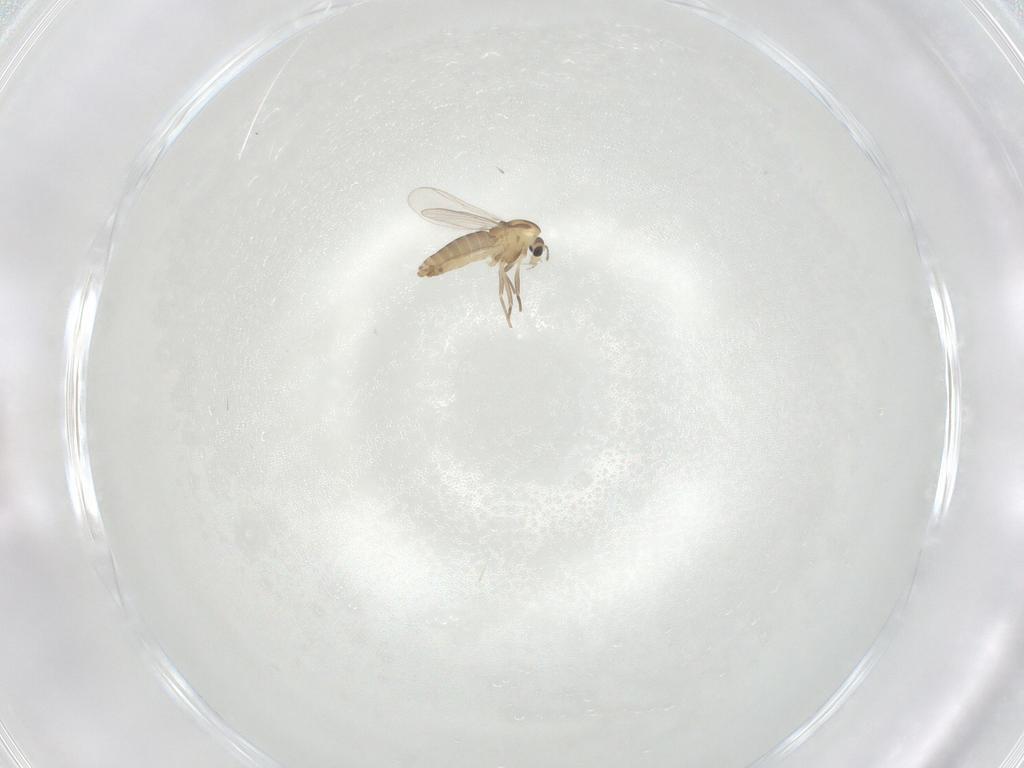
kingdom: Animalia
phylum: Arthropoda
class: Insecta
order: Diptera
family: Chironomidae
